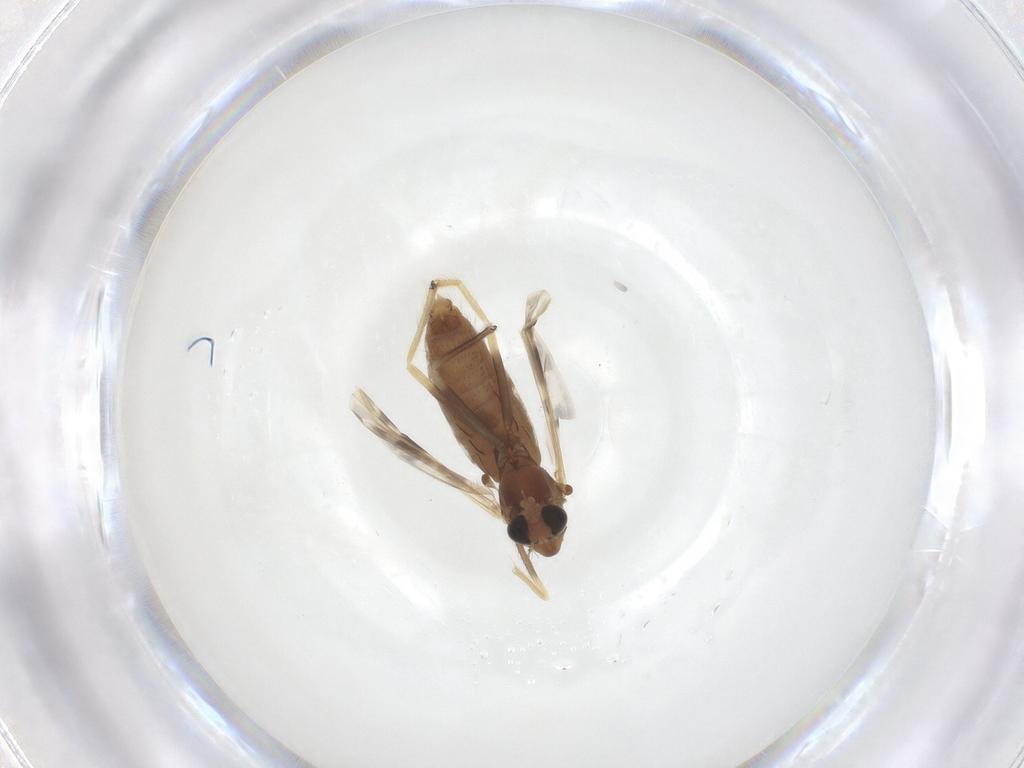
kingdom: Animalia
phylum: Arthropoda
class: Insecta
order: Diptera
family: Chironomidae
